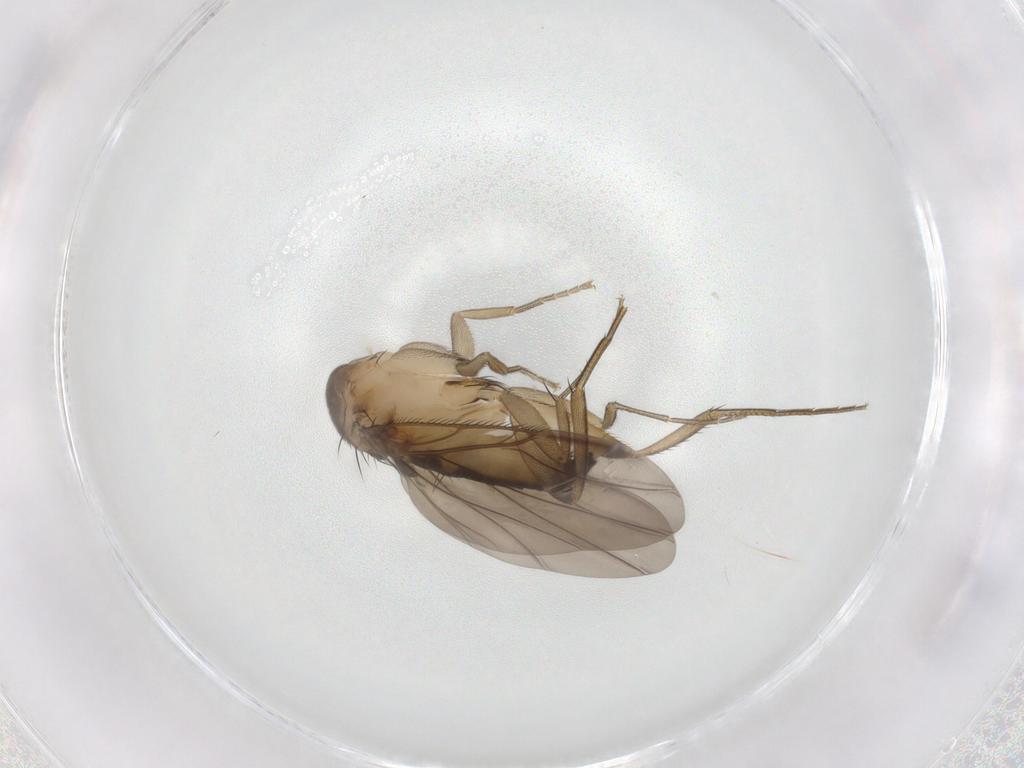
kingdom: Animalia
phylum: Arthropoda
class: Insecta
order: Diptera
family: Phoridae
